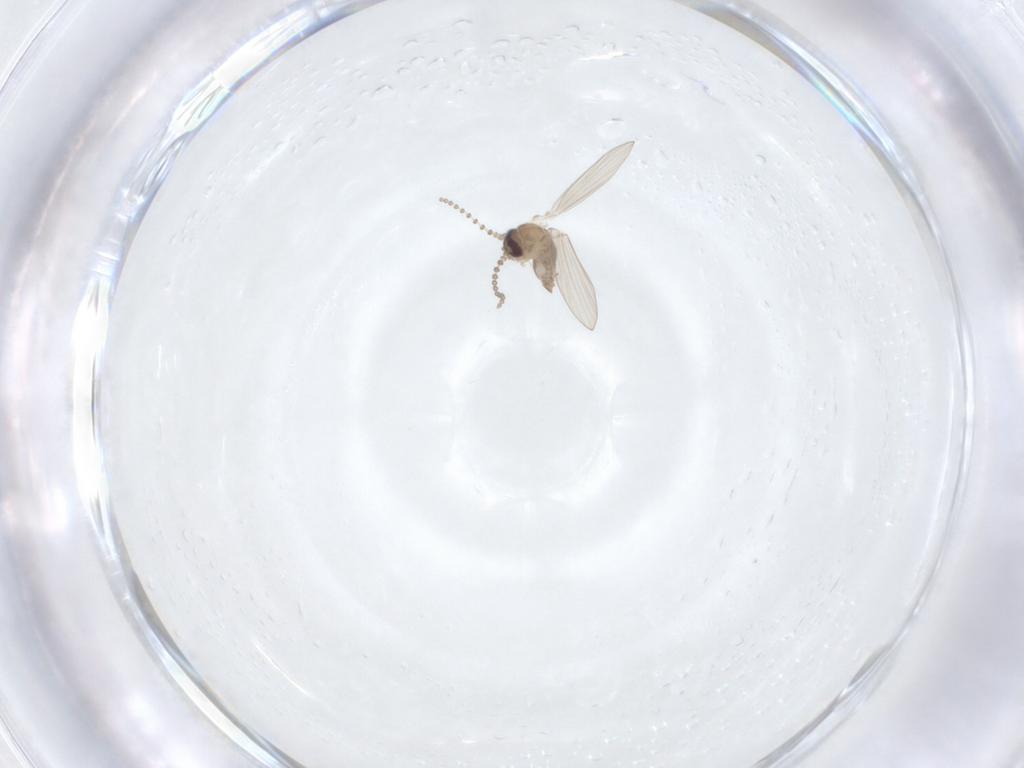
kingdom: Animalia
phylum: Arthropoda
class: Insecta
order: Diptera
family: Psychodidae
